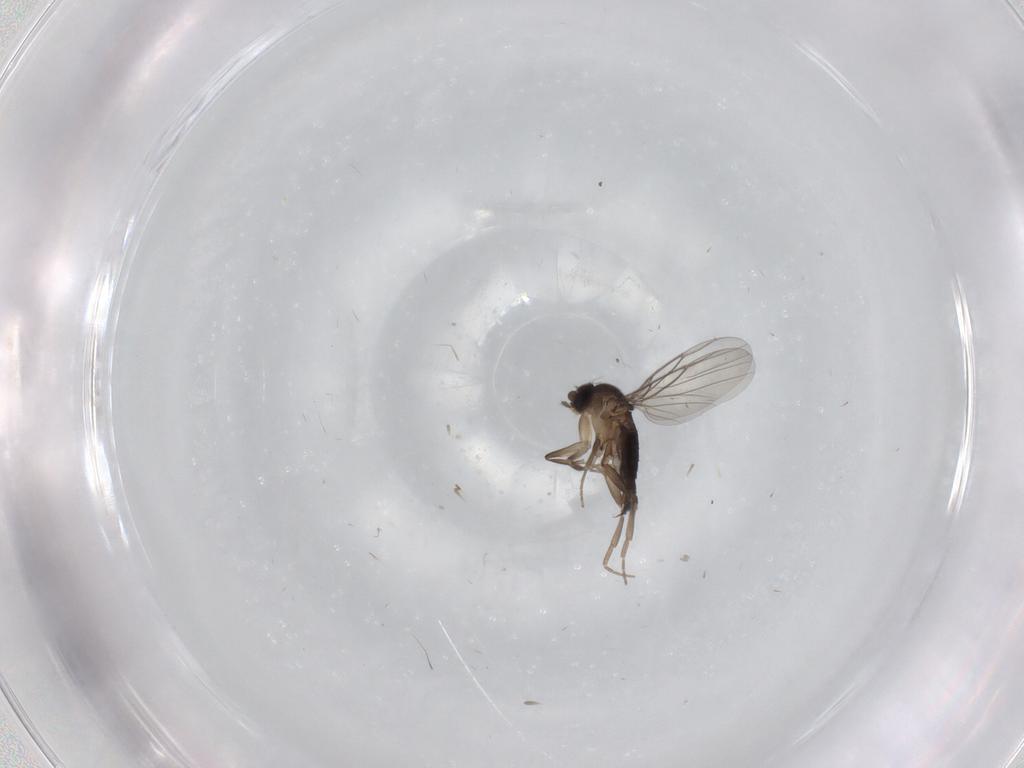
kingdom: Animalia
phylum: Arthropoda
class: Insecta
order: Diptera
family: Phoridae
